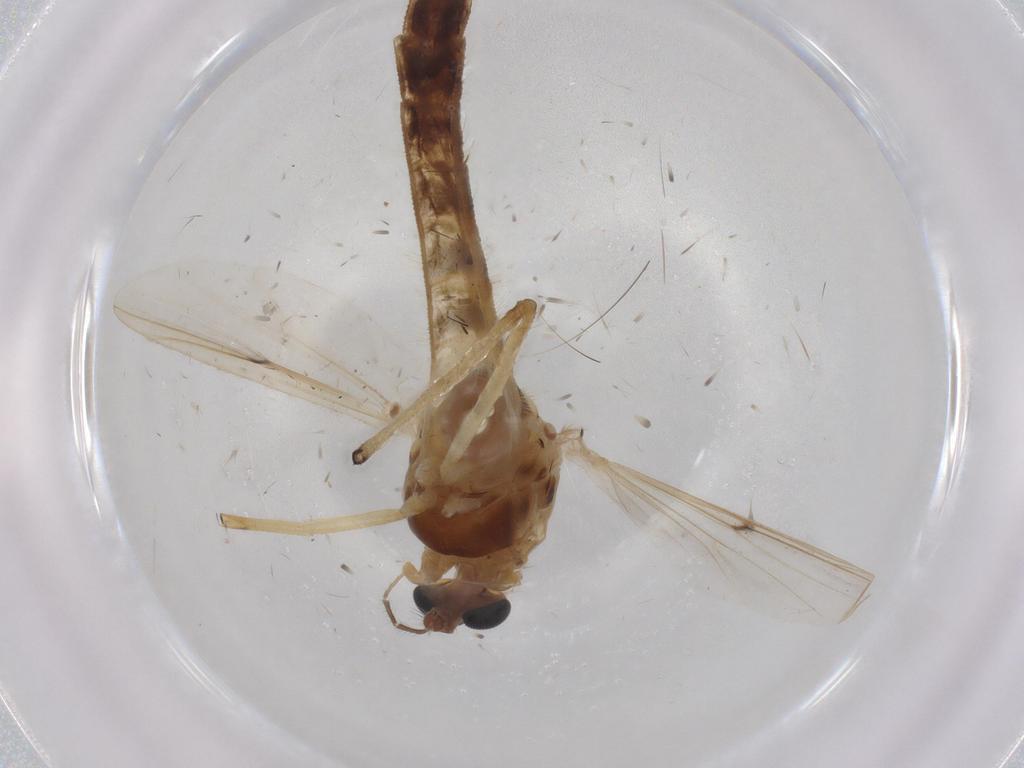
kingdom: Animalia
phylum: Arthropoda
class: Insecta
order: Diptera
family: Chironomidae
